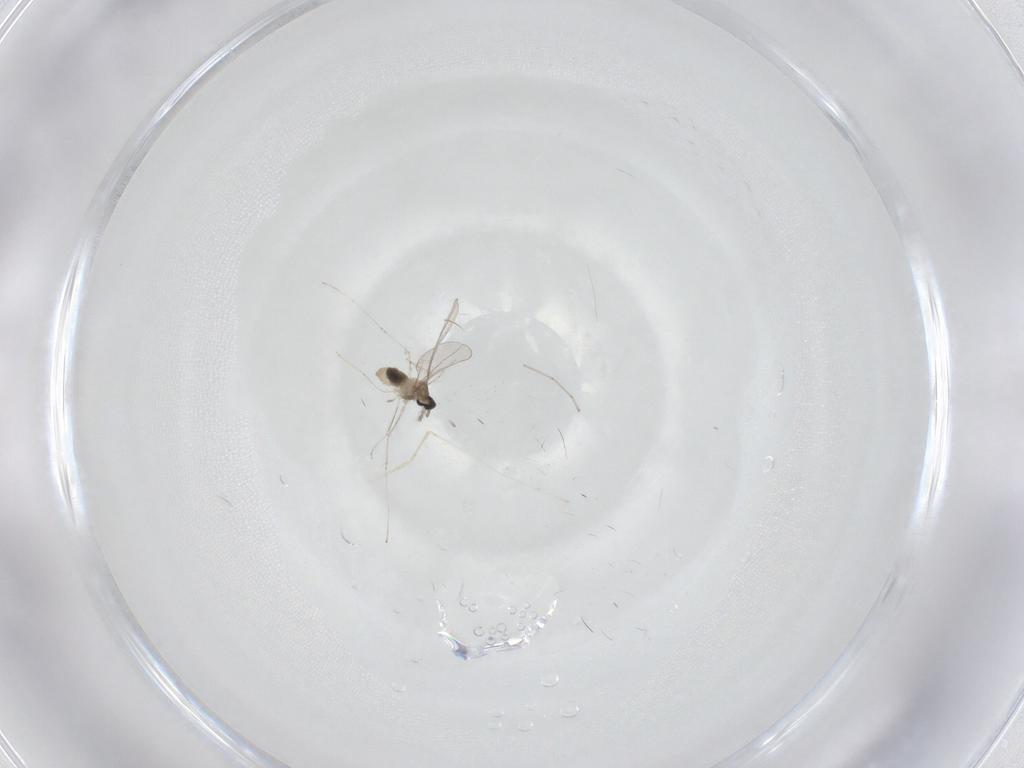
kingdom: Animalia
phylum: Arthropoda
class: Insecta
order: Diptera
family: Cecidomyiidae
